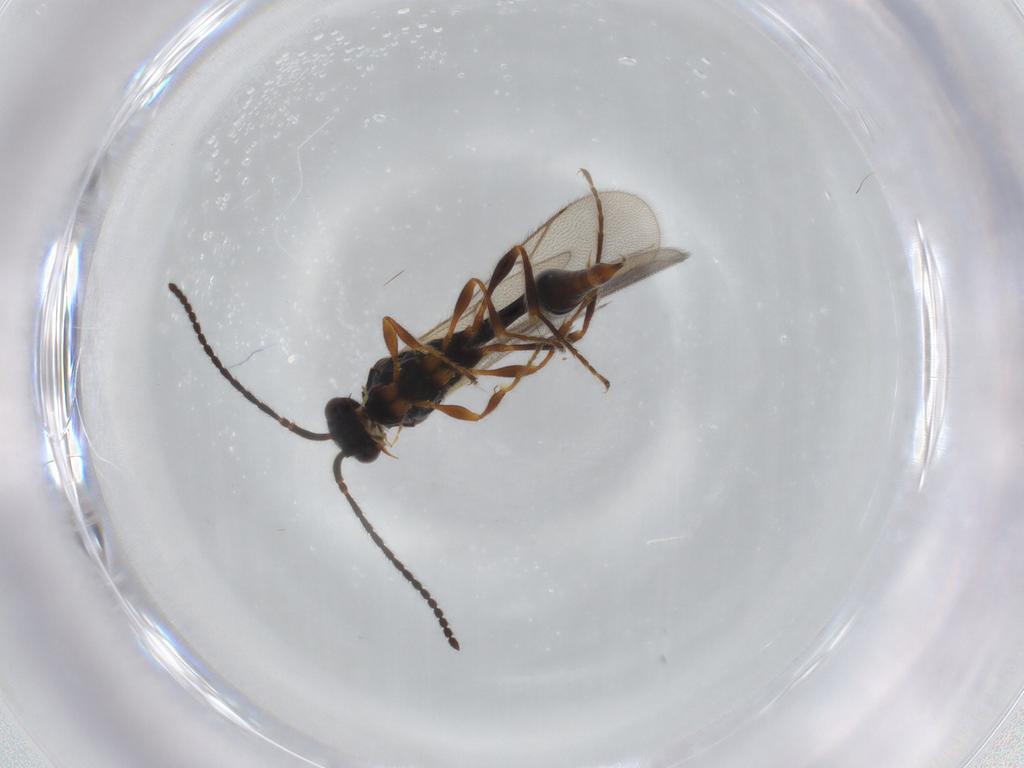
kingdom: Animalia
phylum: Arthropoda
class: Insecta
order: Hymenoptera
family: Diapriidae
